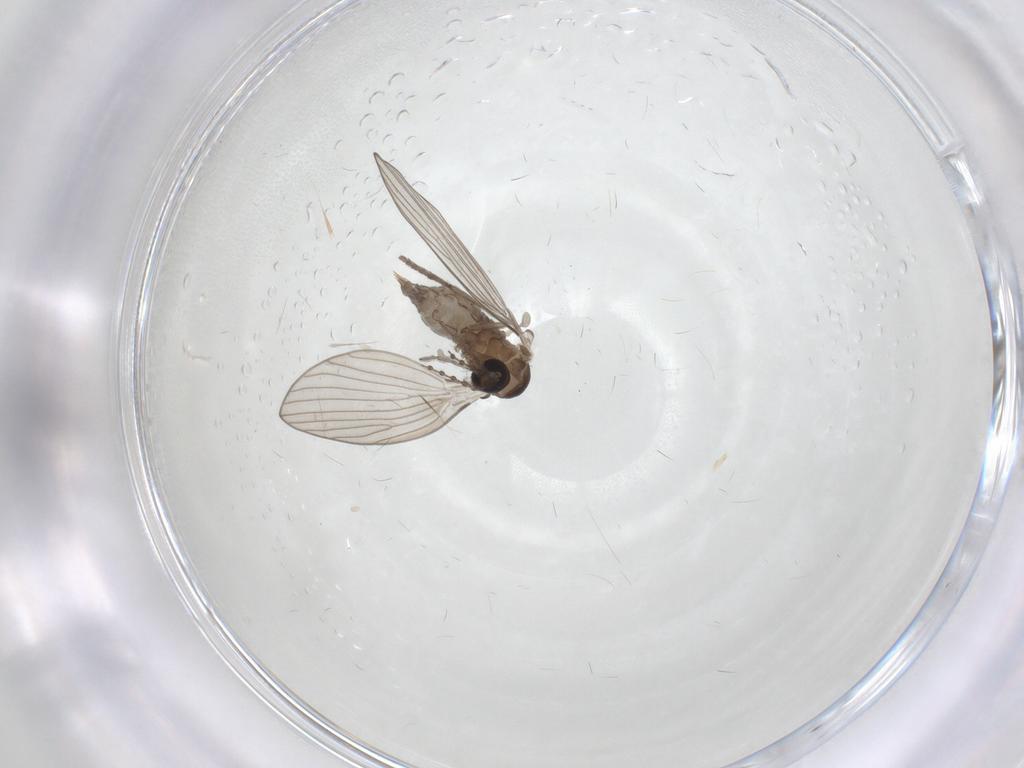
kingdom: Animalia
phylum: Arthropoda
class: Insecta
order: Diptera
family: Psychodidae
